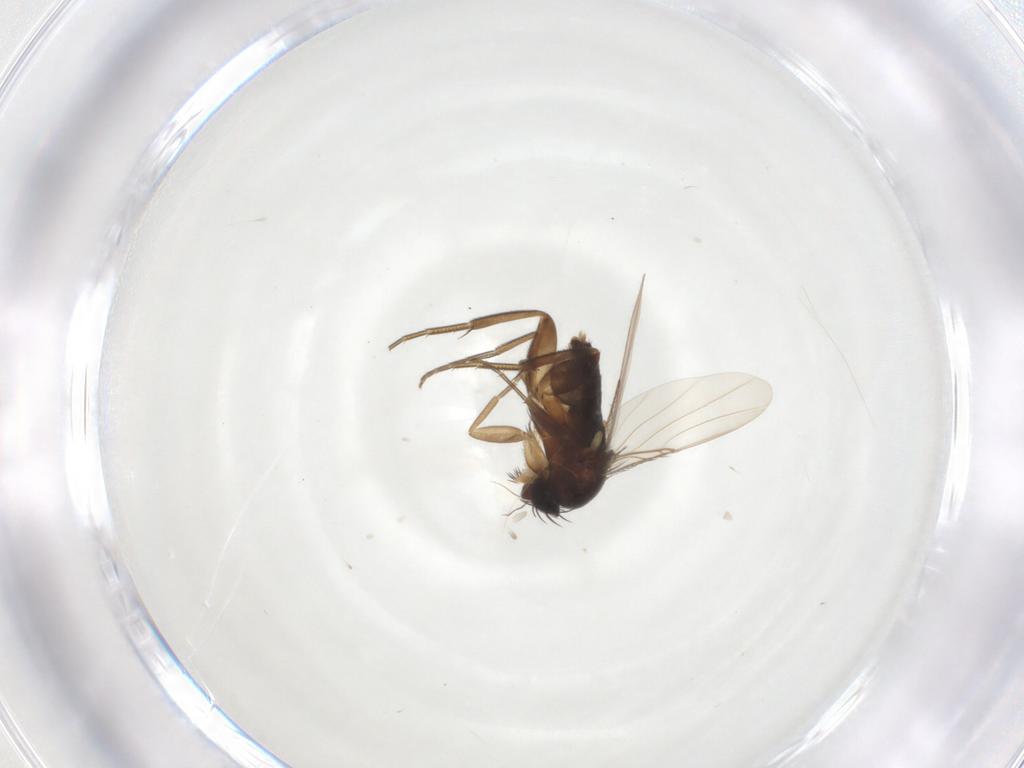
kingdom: Animalia
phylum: Arthropoda
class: Insecta
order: Diptera
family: Phoridae
